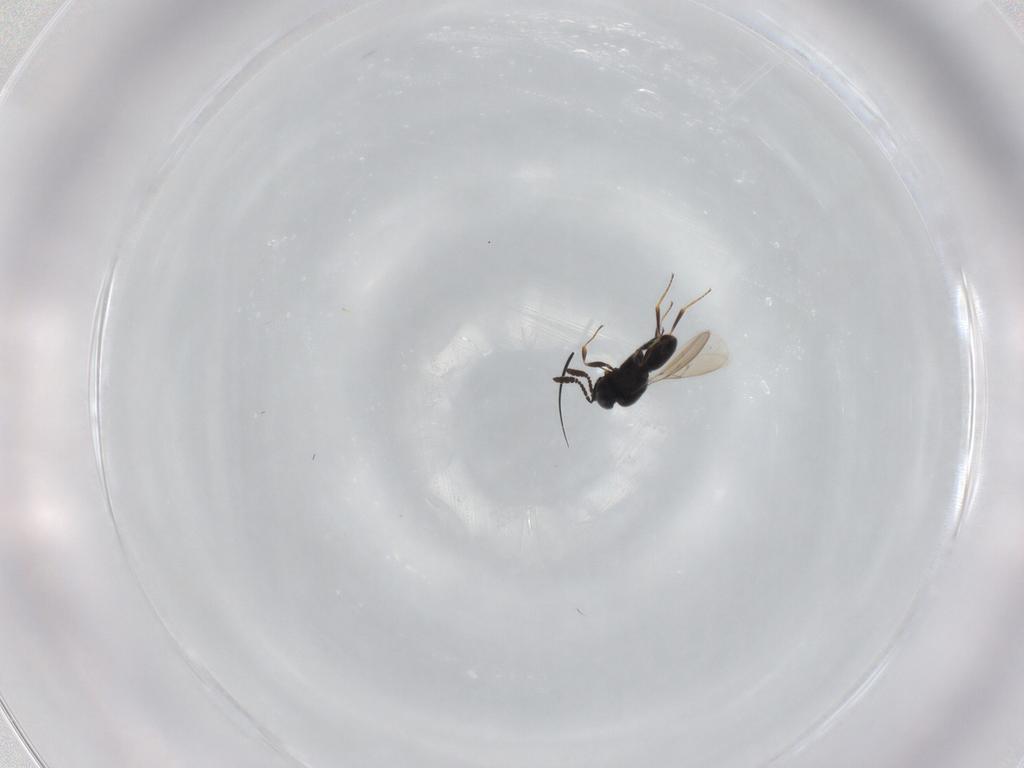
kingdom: Animalia
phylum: Arthropoda
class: Insecta
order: Hymenoptera
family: Scelionidae
